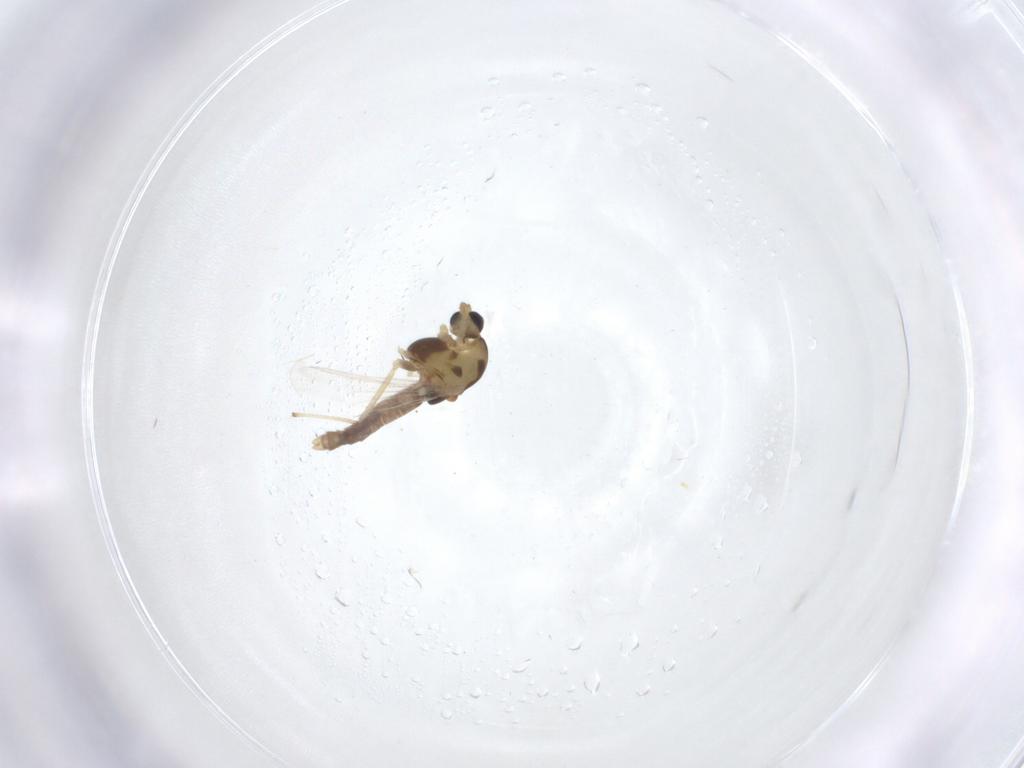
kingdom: Animalia
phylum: Arthropoda
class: Insecta
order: Diptera
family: Chironomidae
